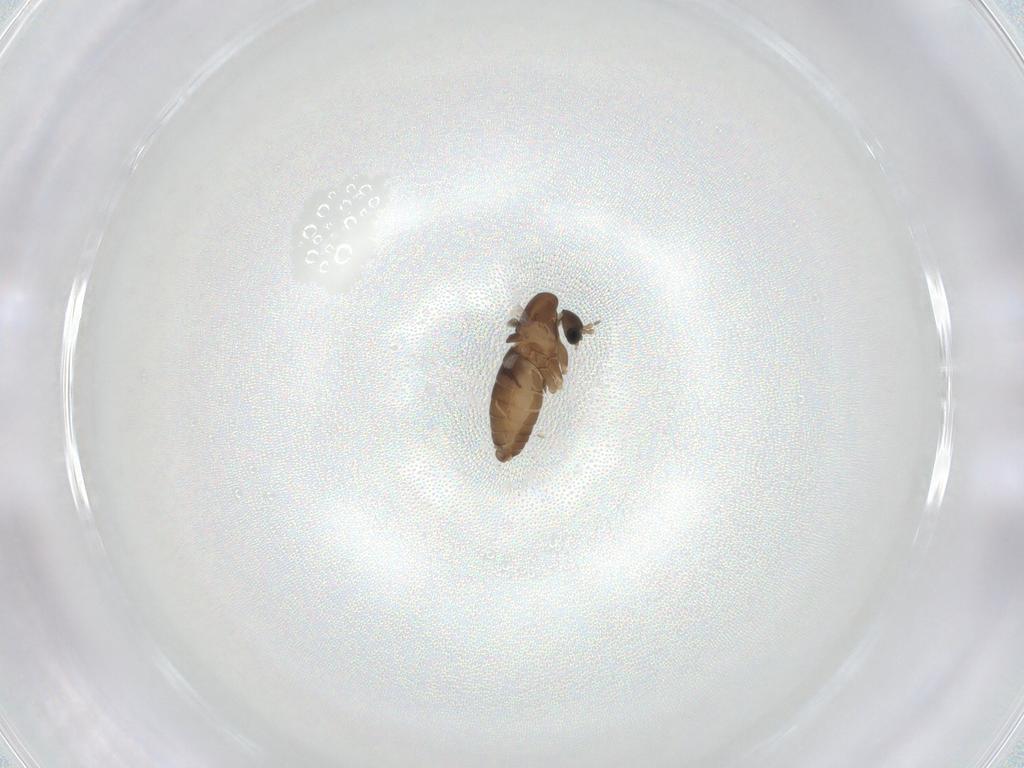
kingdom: Animalia
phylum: Arthropoda
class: Insecta
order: Diptera
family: Psychodidae
